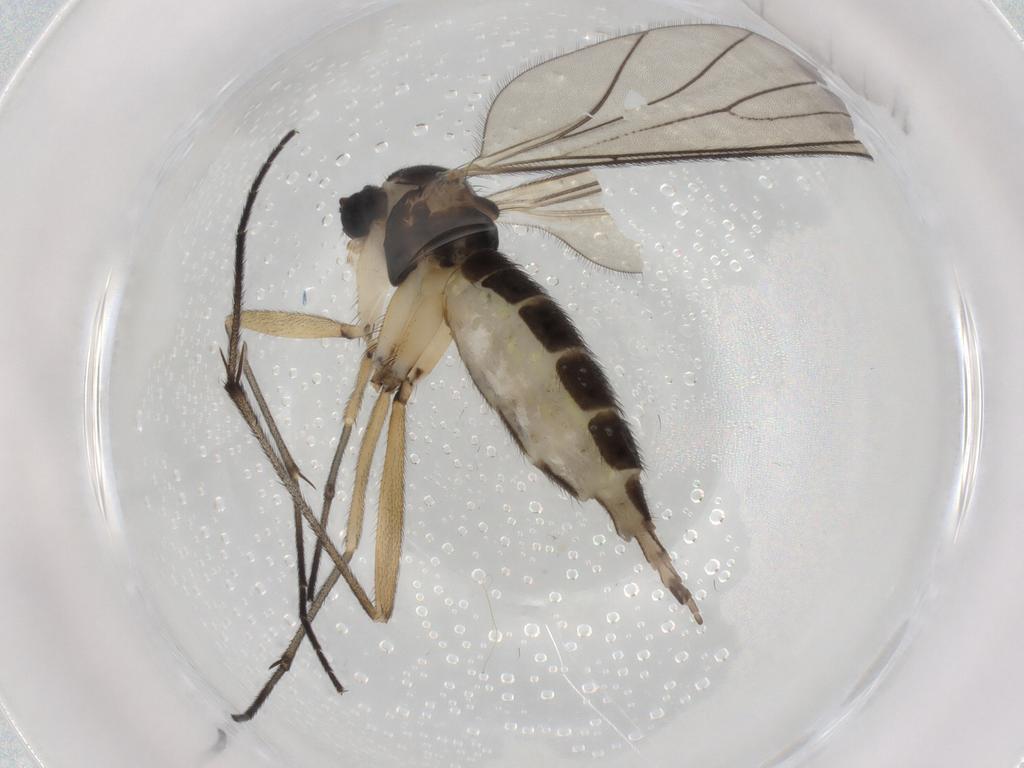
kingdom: Animalia
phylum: Arthropoda
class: Insecta
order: Diptera
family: Sciaridae
